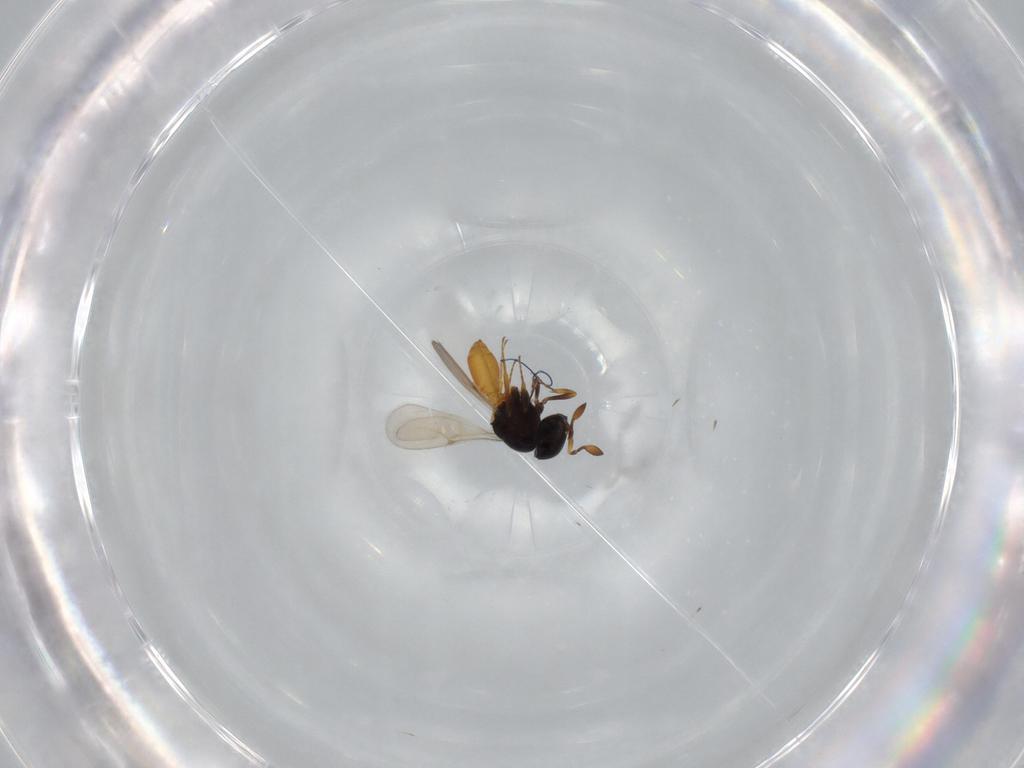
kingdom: Animalia
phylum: Arthropoda
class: Insecta
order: Hymenoptera
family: Scelionidae
